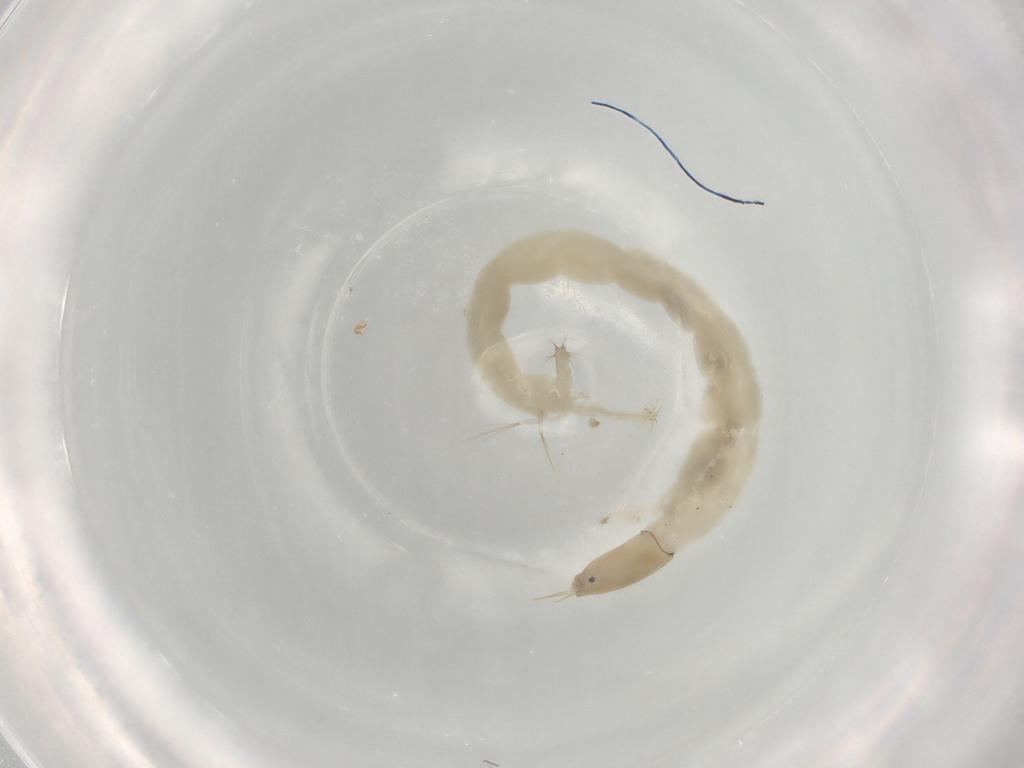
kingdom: Animalia
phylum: Arthropoda
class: Insecta
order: Diptera
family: Chironomidae
